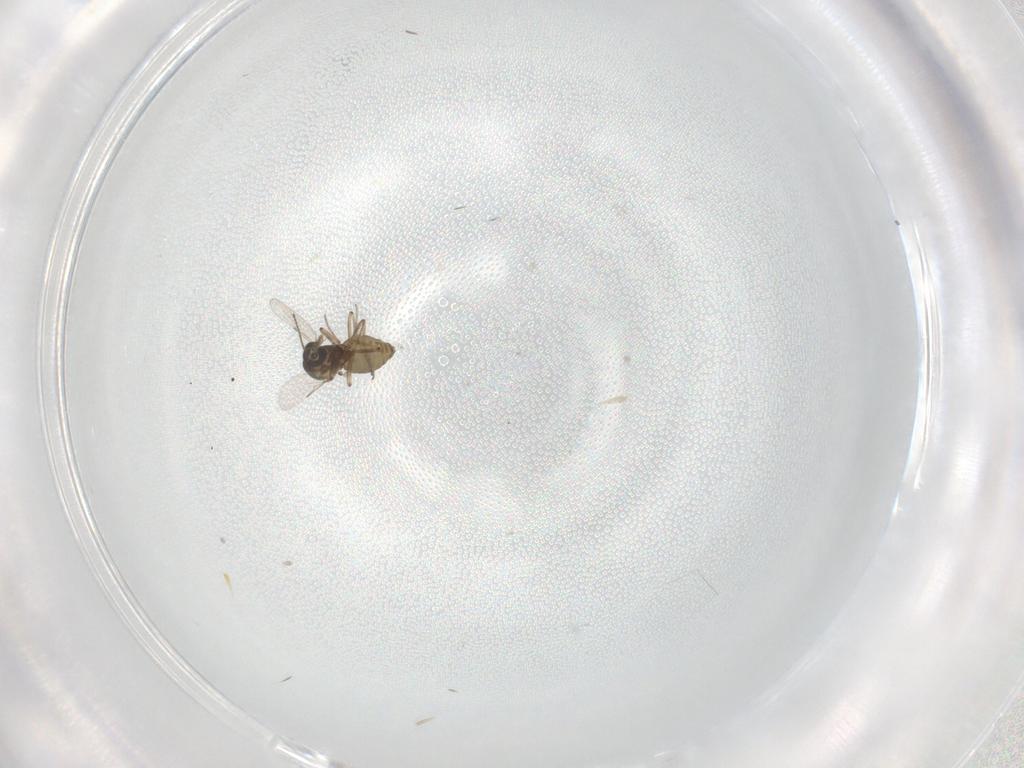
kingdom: Animalia
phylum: Arthropoda
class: Insecta
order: Diptera
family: Ceratopogonidae
